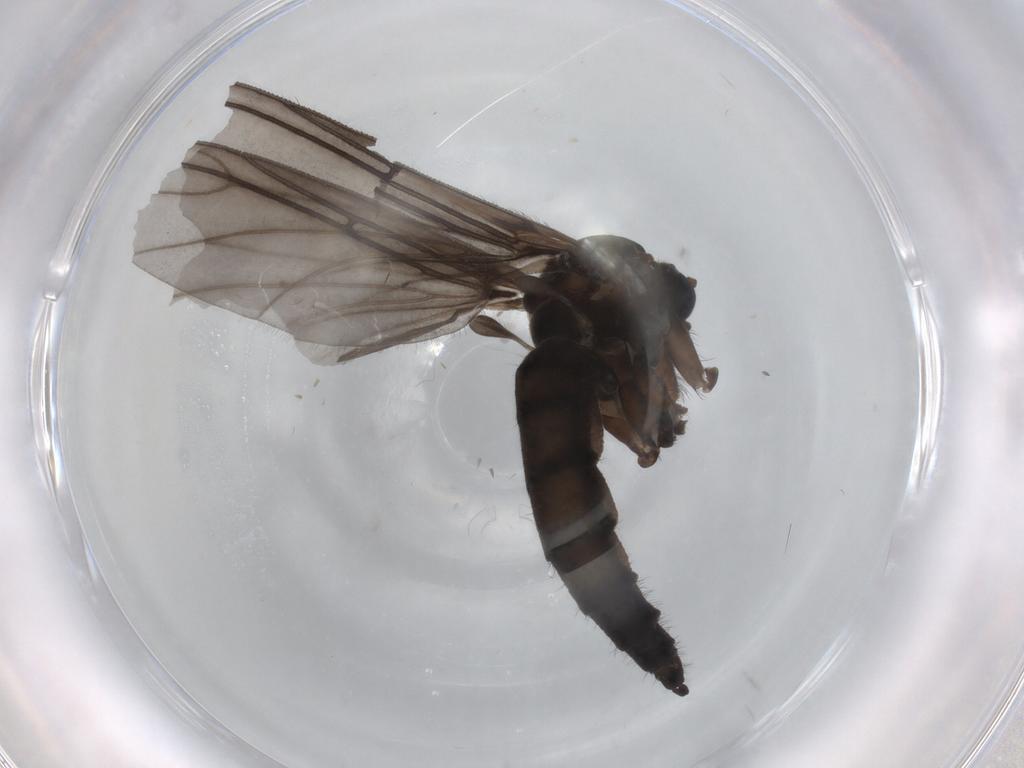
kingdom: Animalia
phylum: Arthropoda
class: Insecta
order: Diptera
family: Sciaridae
